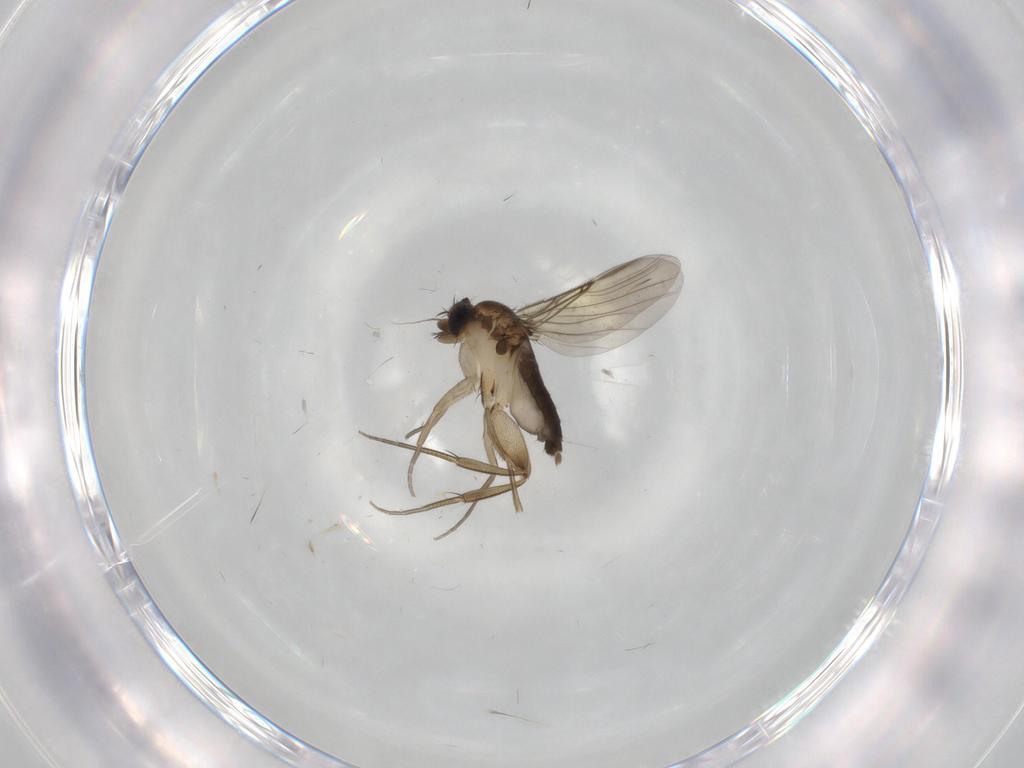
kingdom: Animalia
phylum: Arthropoda
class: Insecta
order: Diptera
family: Phoridae
